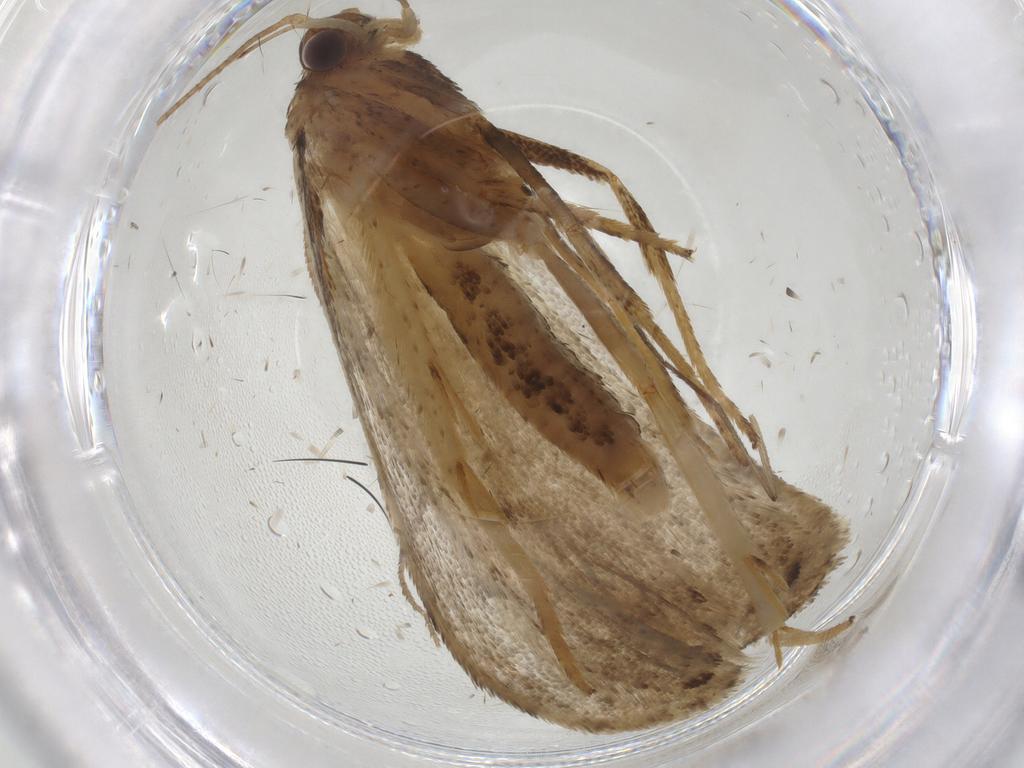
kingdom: Animalia
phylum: Arthropoda
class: Insecta
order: Lepidoptera
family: Depressariidae
